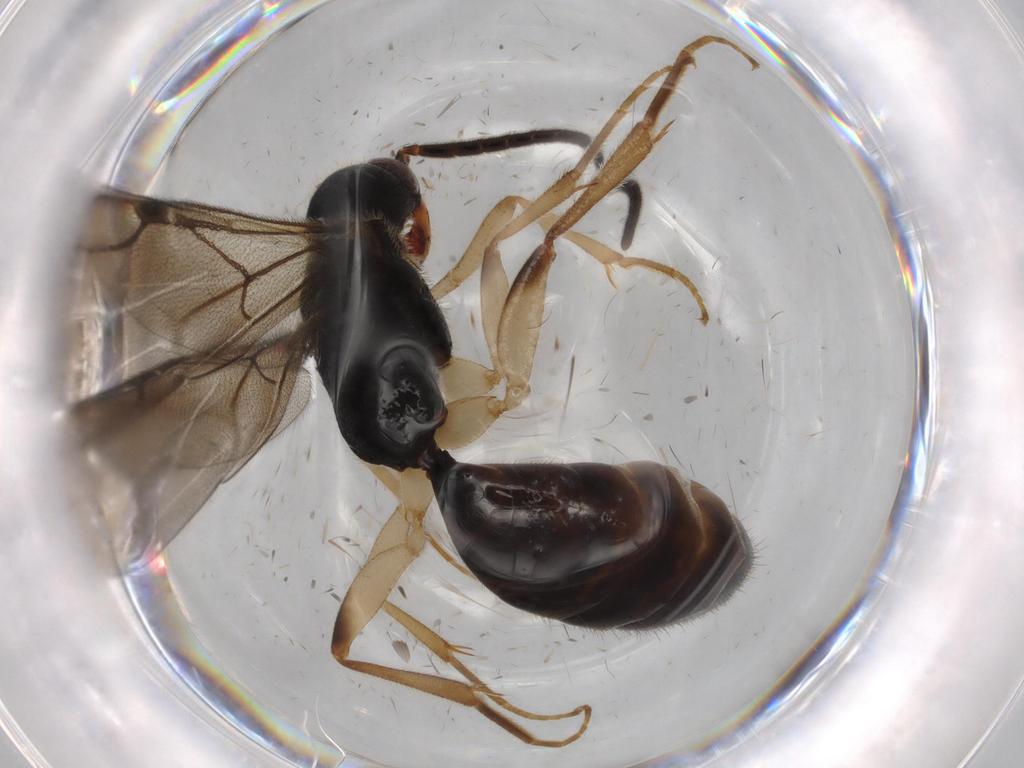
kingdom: Animalia
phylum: Arthropoda
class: Insecta
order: Hymenoptera
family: Bethylidae
